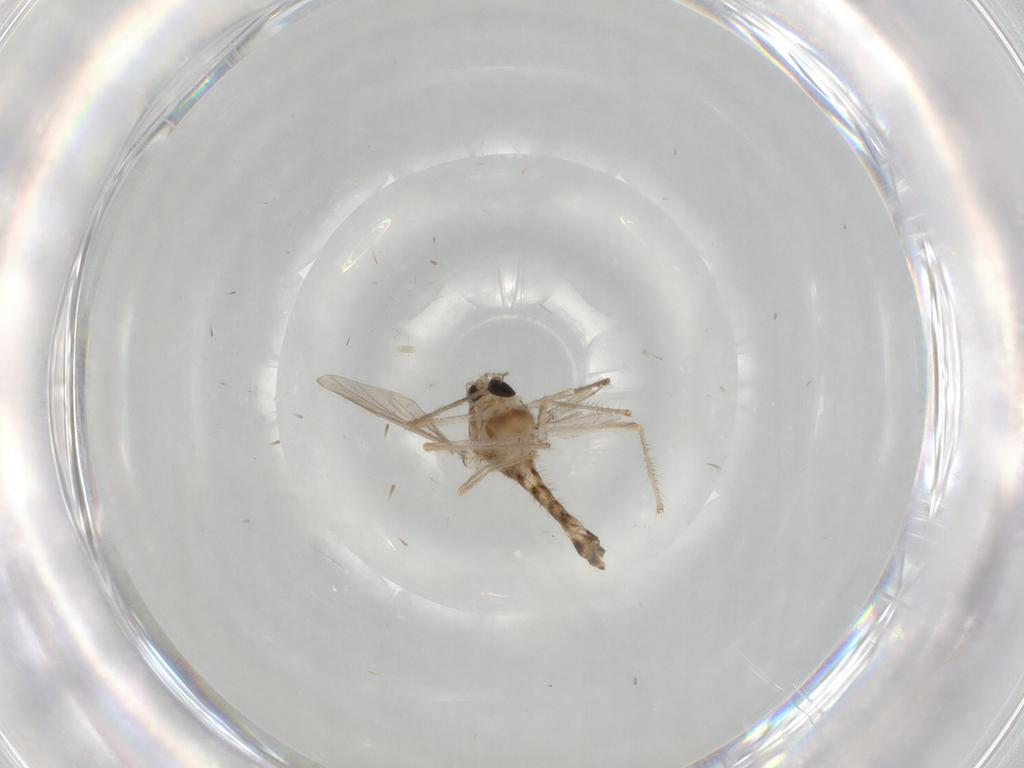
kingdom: Animalia
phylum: Arthropoda
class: Insecta
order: Diptera
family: Chironomidae
